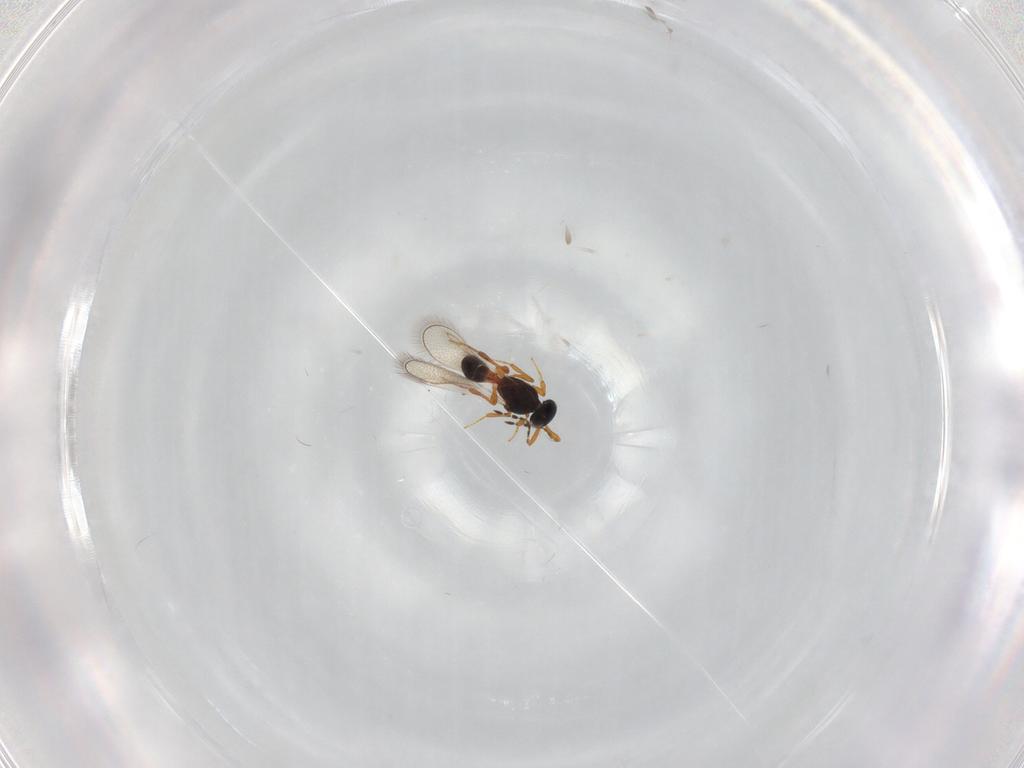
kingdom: Animalia
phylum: Arthropoda
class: Insecta
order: Hymenoptera
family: Platygastridae
